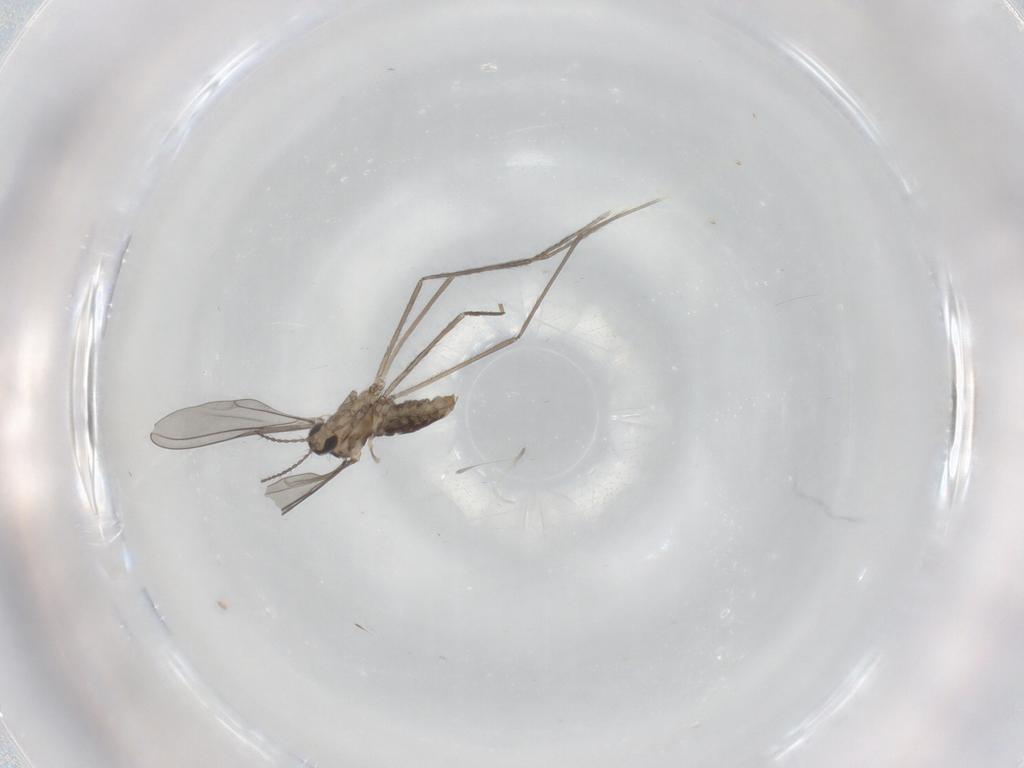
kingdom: Animalia
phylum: Arthropoda
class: Insecta
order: Diptera
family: Cecidomyiidae
